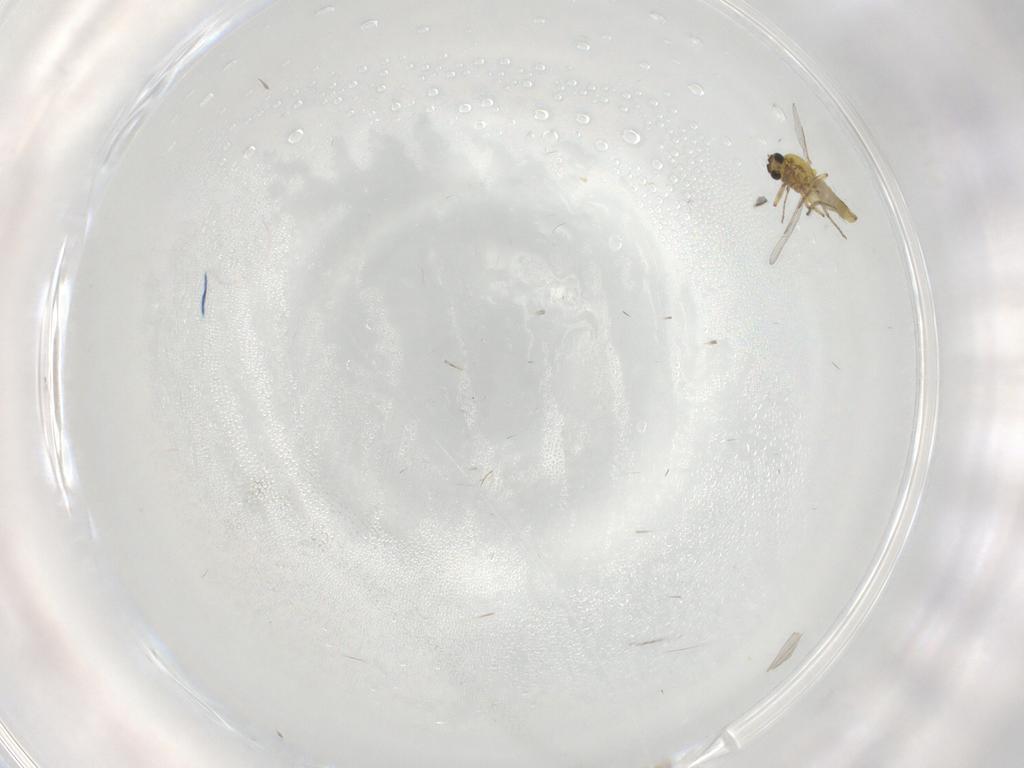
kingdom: Animalia
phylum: Arthropoda
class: Insecta
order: Diptera
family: Ceratopogonidae
